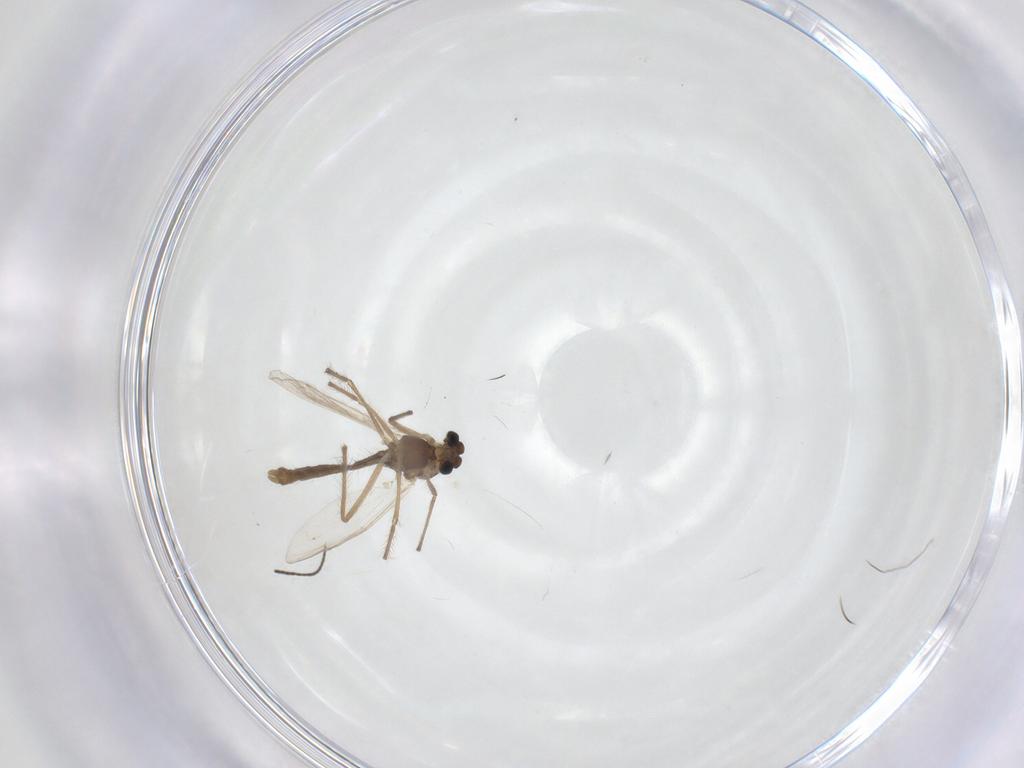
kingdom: Animalia
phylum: Arthropoda
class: Insecta
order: Diptera
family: Chironomidae
